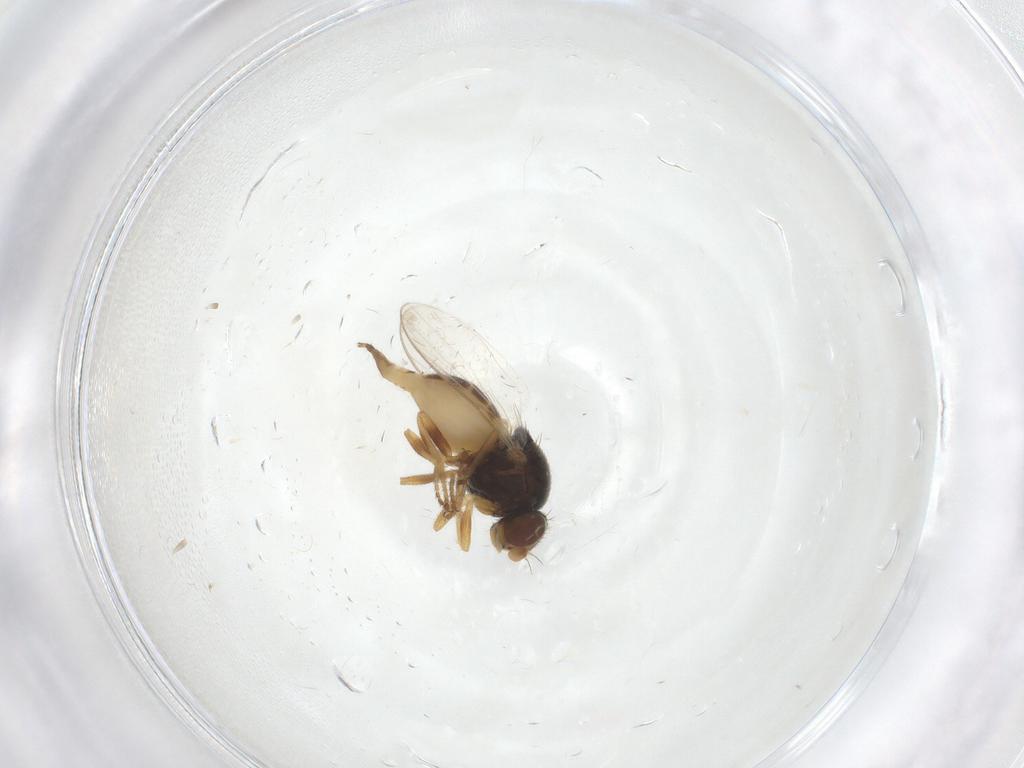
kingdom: Animalia
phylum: Arthropoda
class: Insecta
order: Diptera
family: Chloropidae
